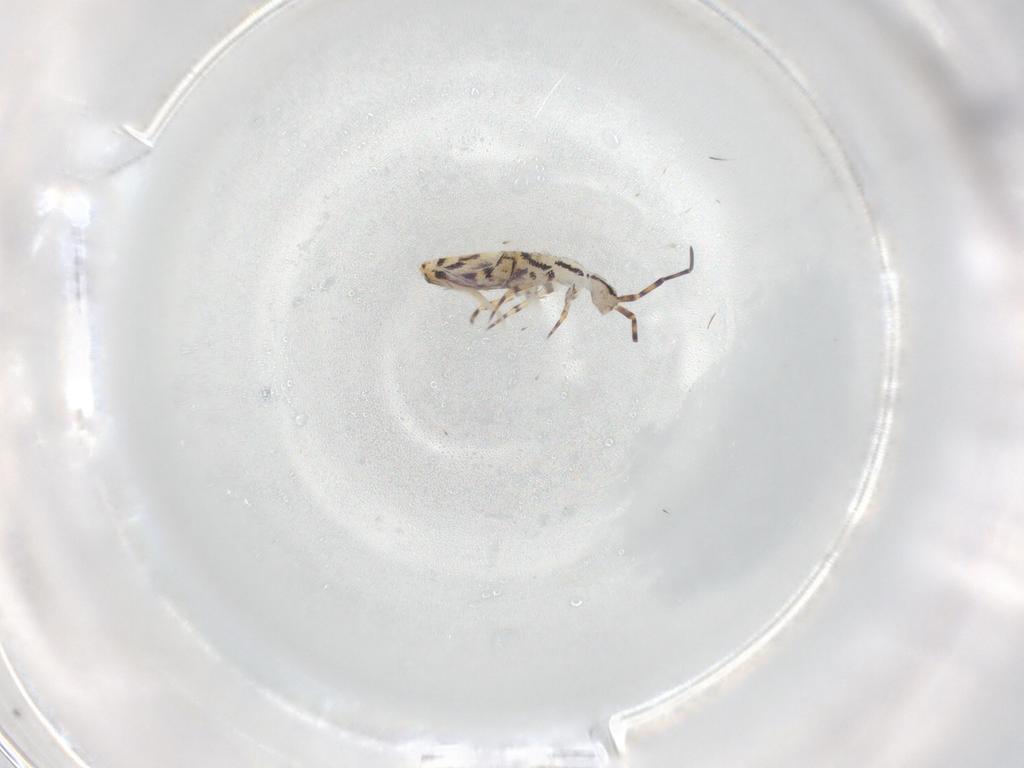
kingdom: Animalia
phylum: Arthropoda
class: Collembola
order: Entomobryomorpha
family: Entomobryidae
